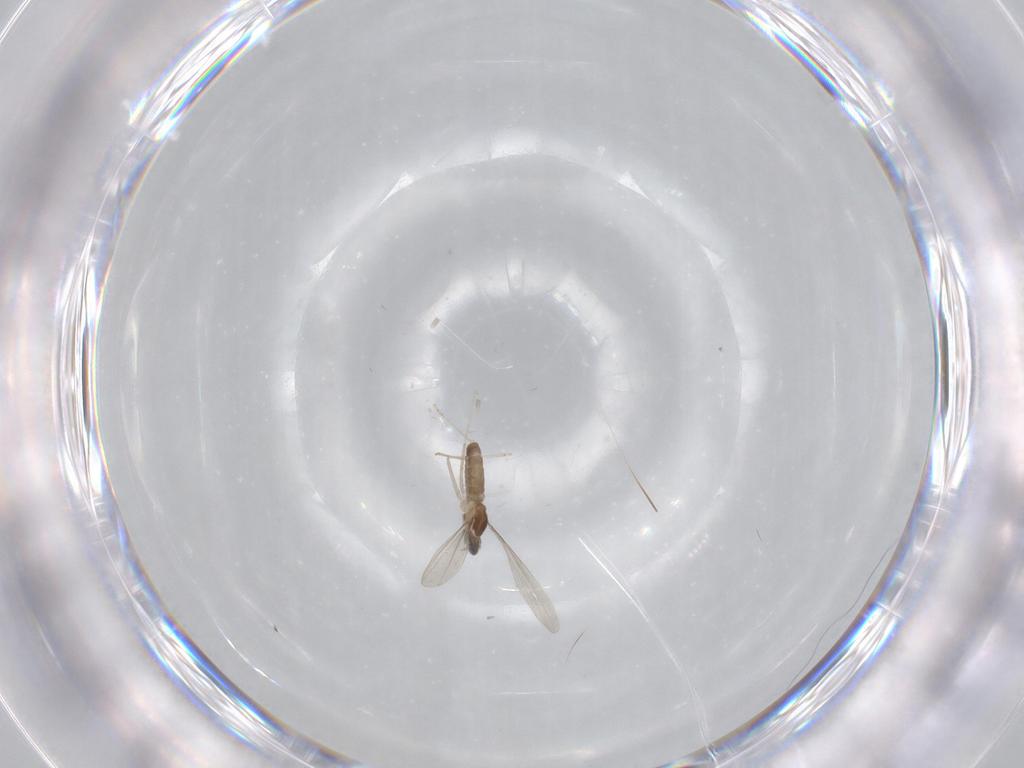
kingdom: Animalia
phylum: Arthropoda
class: Insecta
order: Diptera
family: Cecidomyiidae
